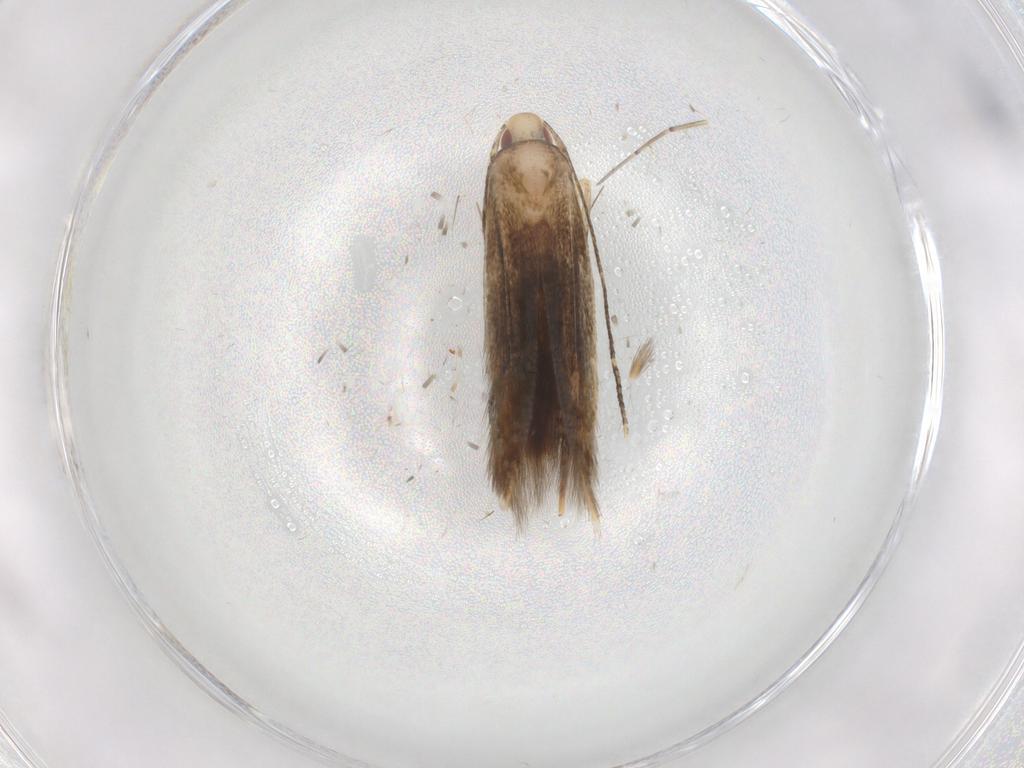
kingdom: Animalia
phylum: Arthropoda
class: Insecta
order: Lepidoptera
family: Gelechiidae
